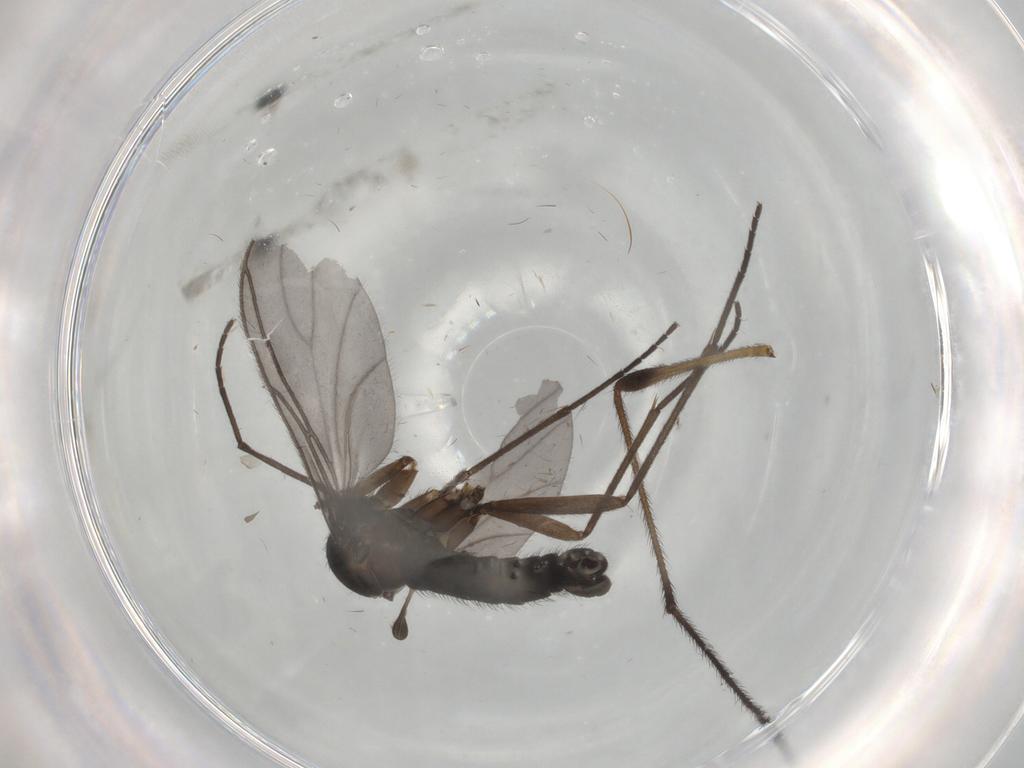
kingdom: Animalia
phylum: Arthropoda
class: Insecta
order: Diptera
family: Sciaridae
